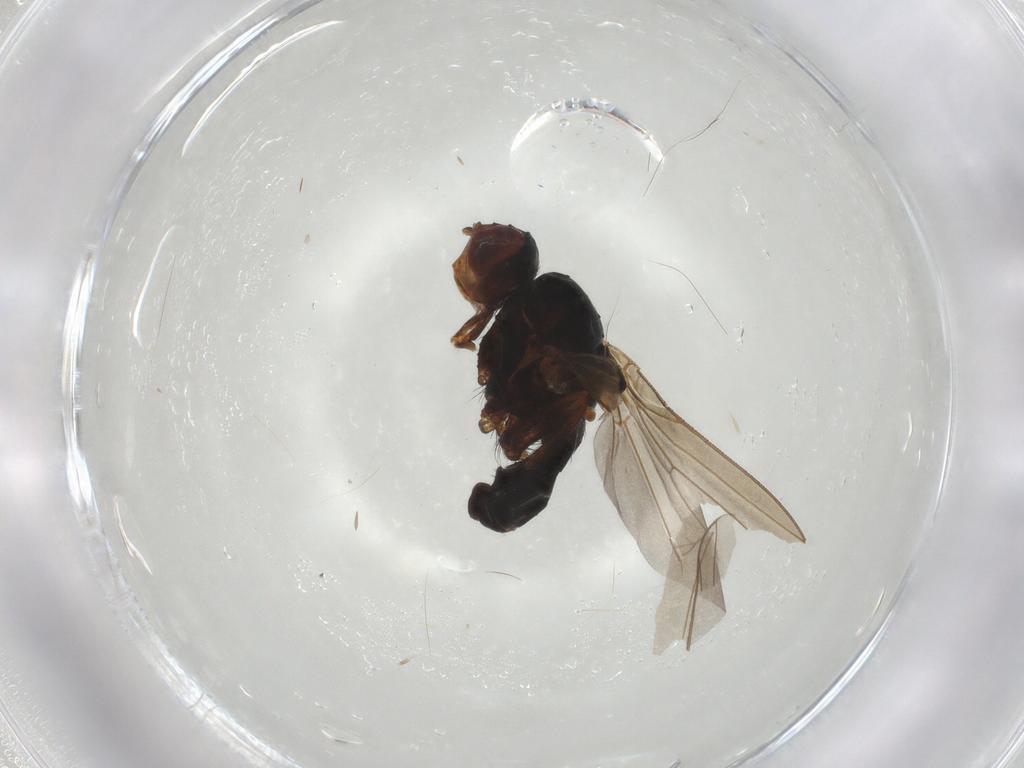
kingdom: Animalia
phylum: Arthropoda
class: Insecta
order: Diptera
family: Heleomyzidae
